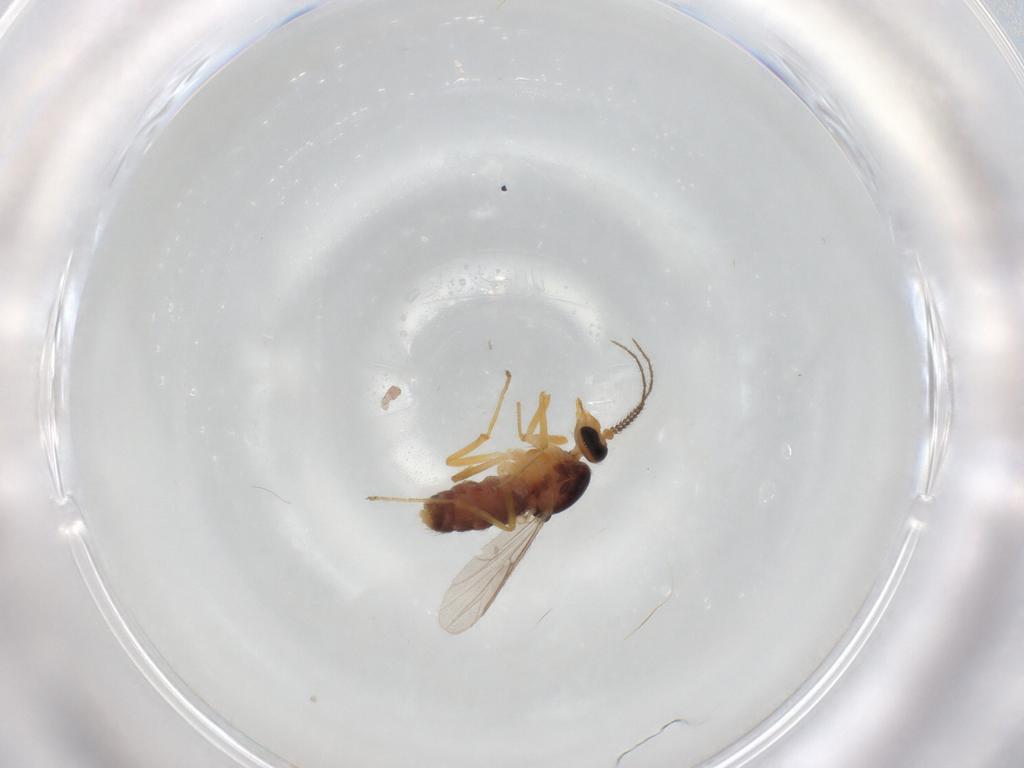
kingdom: Animalia
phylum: Arthropoda
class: Insecta
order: Diptera
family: Ceratopogonidae
